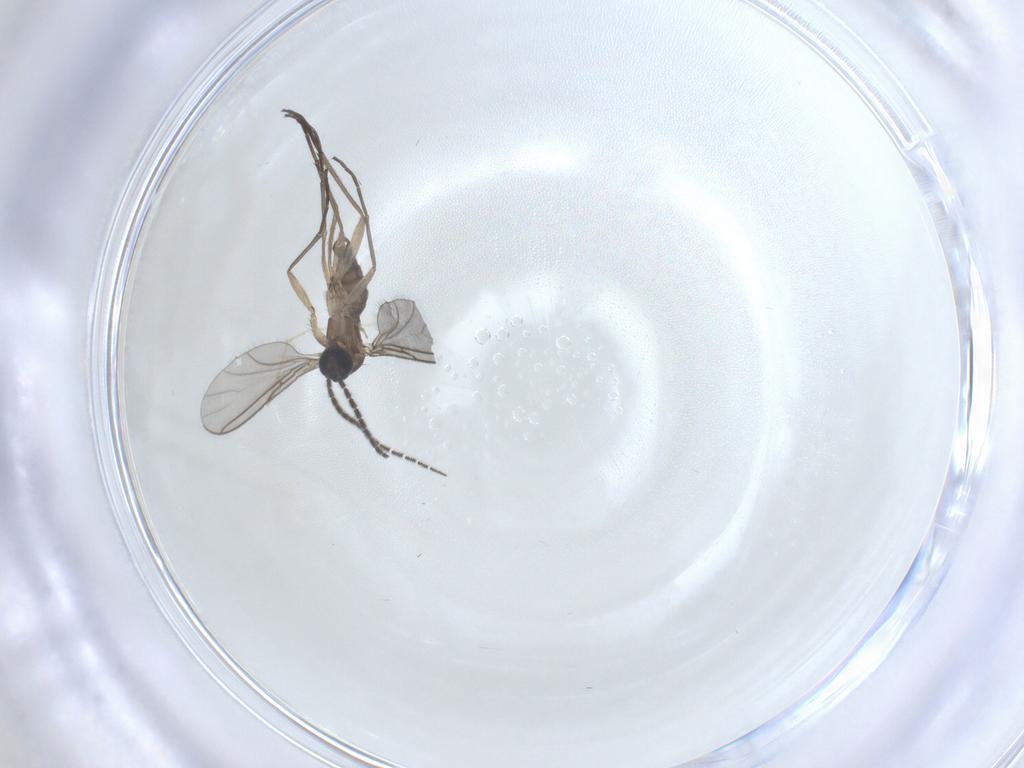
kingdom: Animalia
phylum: Arthropoda
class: Insecta
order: Diptera
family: Sciaridae
